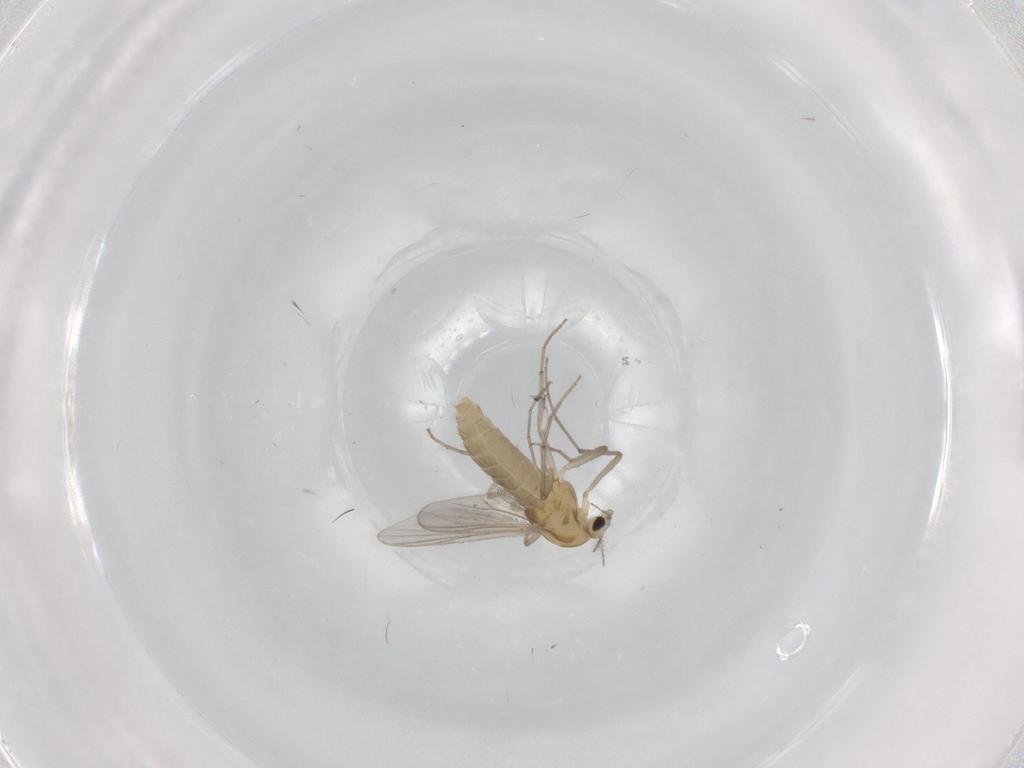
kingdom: Animalia
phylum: Arthropoda
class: Insecta
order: Diptera
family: Chironomidae
